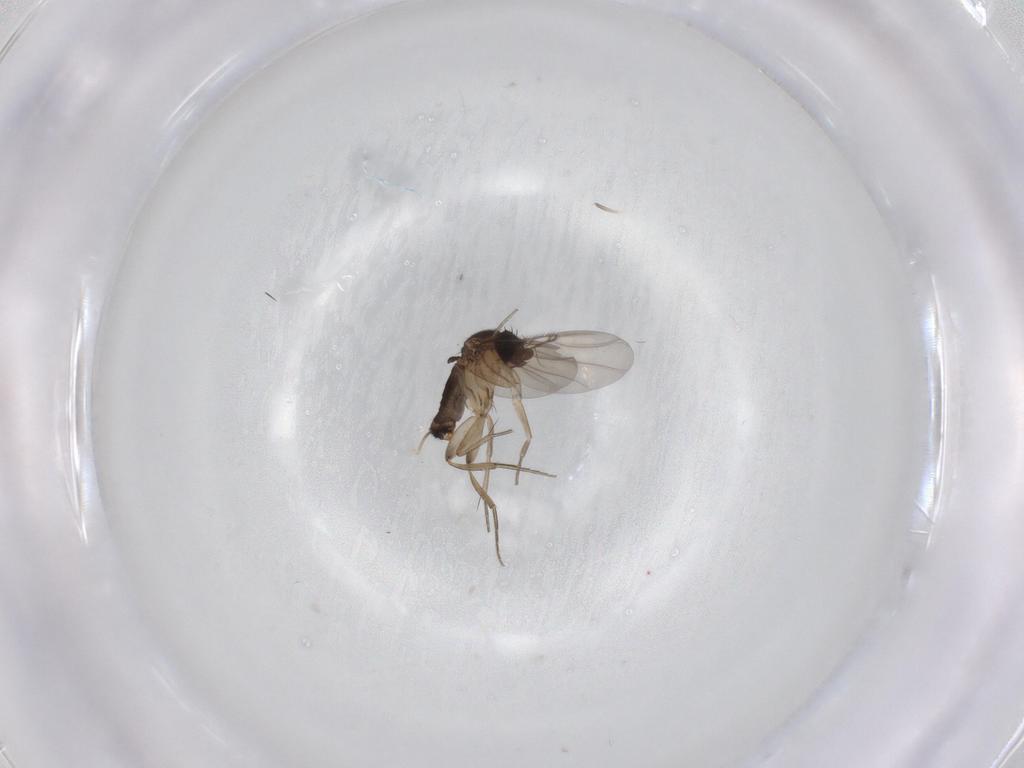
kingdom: Animalia
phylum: Arthropoda
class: Insecta
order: Diptera
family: Phoridae
